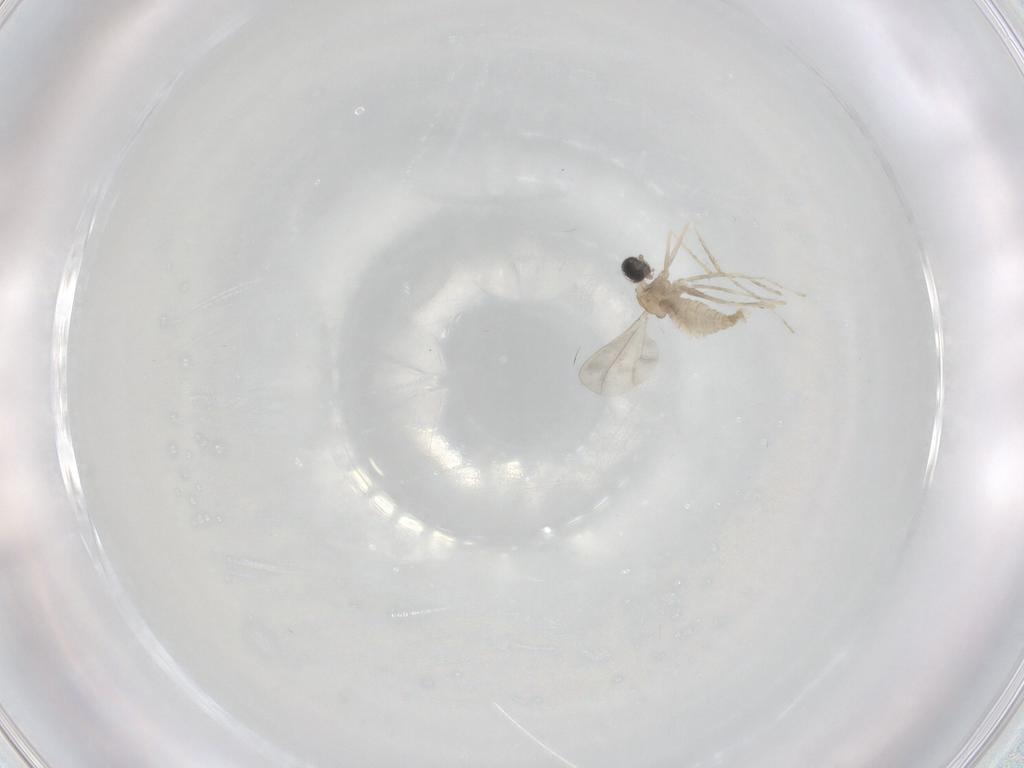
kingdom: Animalia
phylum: Arthropoda
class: Insecta
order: Diptera
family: Cecidomyiidae
